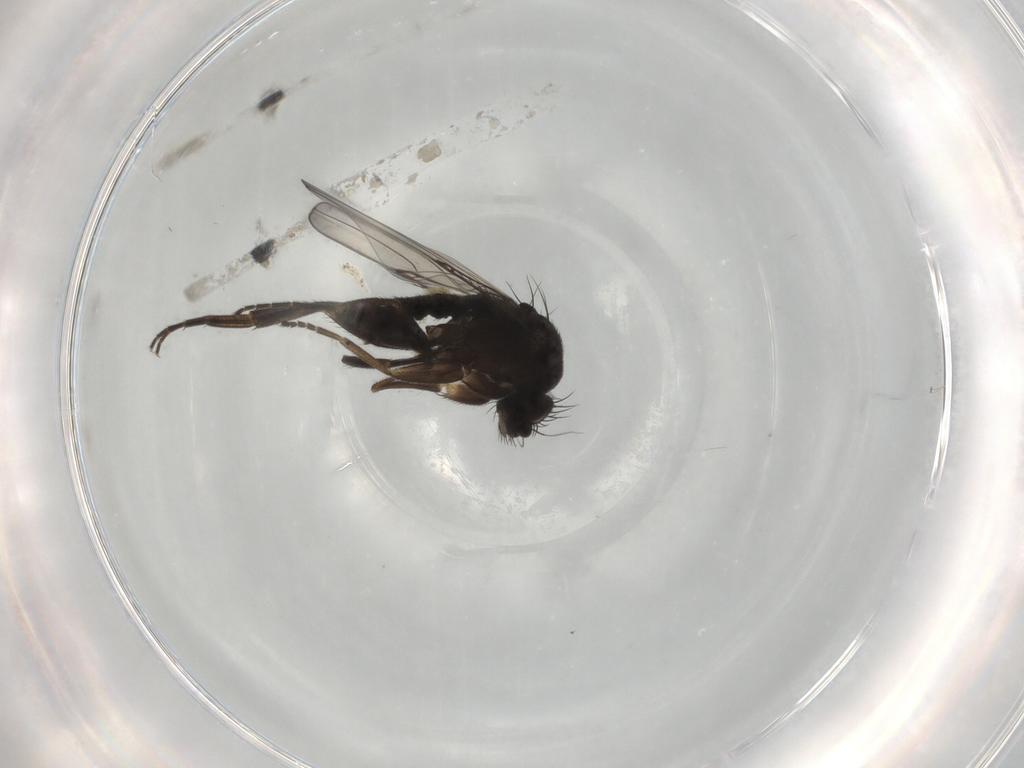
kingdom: Animalia
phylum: Arthropoda
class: Insecta
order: Diptera
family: Phoridae
